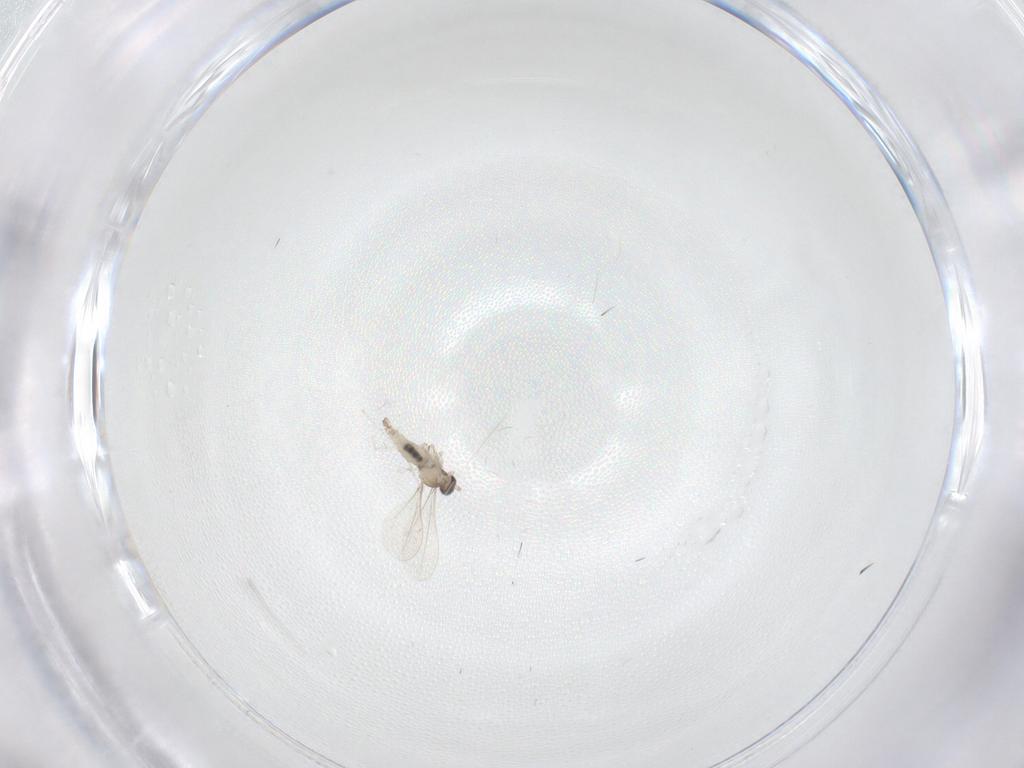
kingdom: Animalia
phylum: Arthropoda
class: Insecta
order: Diptera
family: Cecidomyiidae
